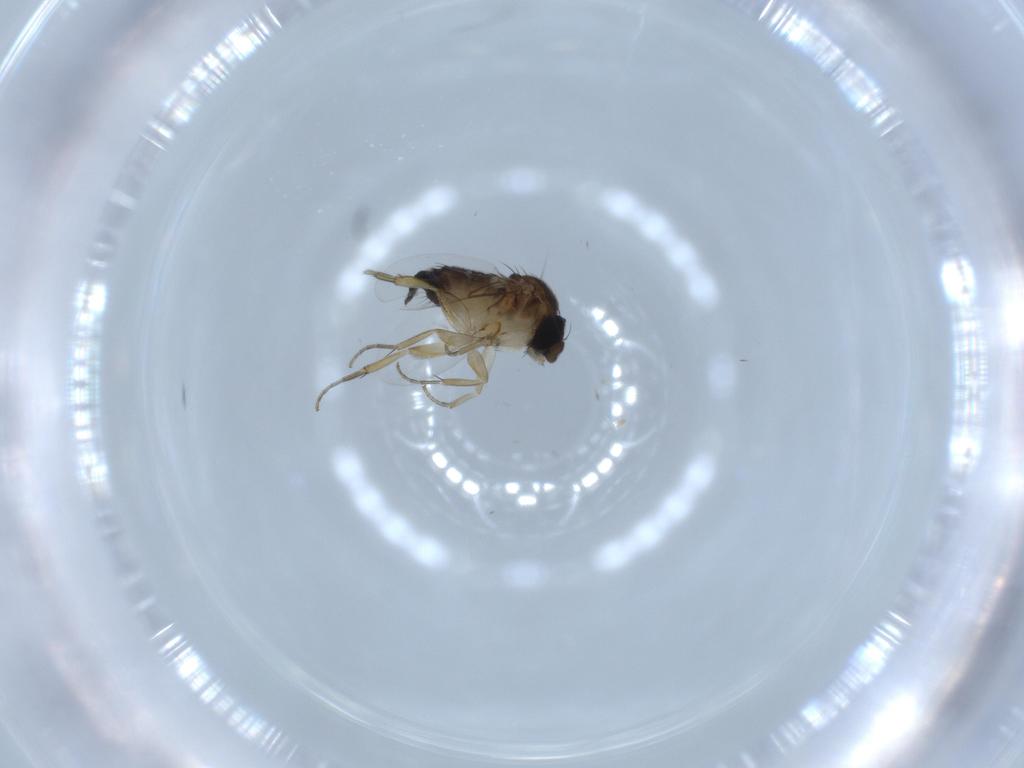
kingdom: Animalia
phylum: Arthropoda
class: Insecta
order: Diptera
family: Phoridae
